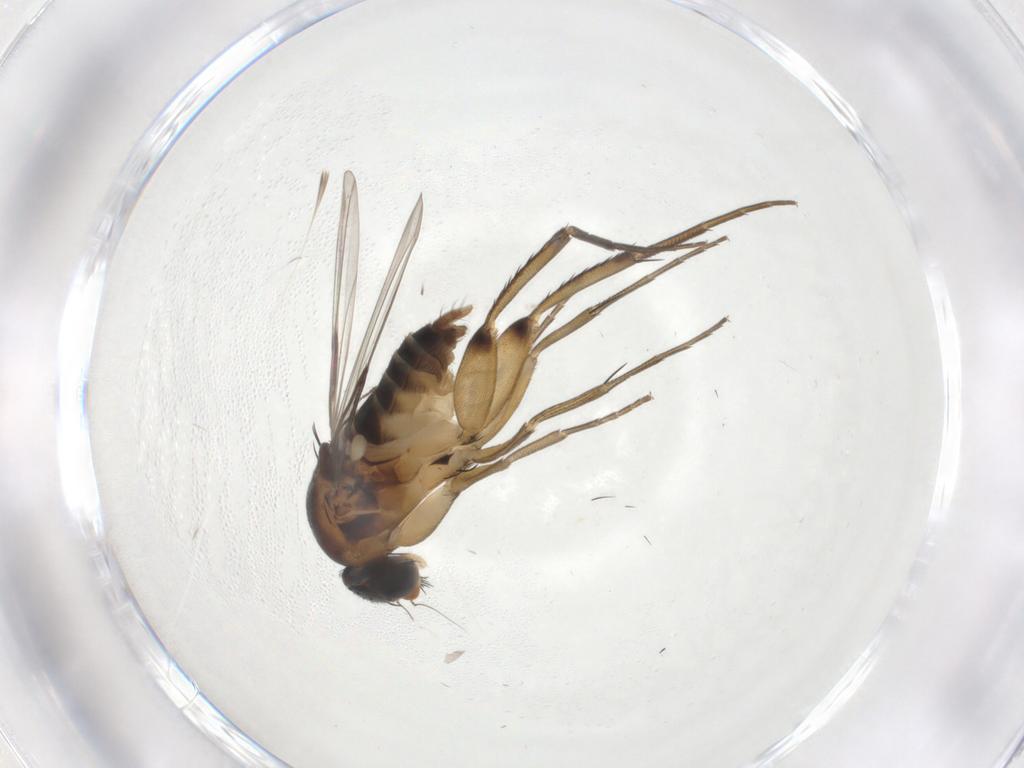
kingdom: Animalia
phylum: Arthropoda
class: Insecta
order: Diptera
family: Phoridae
